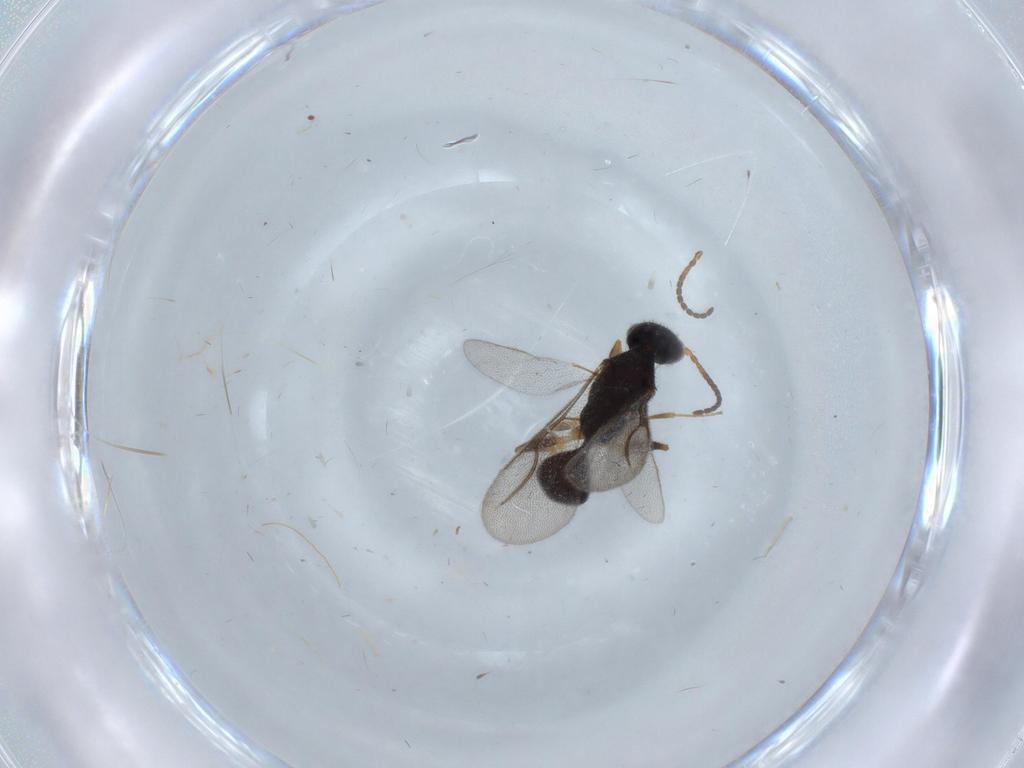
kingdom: Animalia
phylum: Arthropoda
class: Insecta
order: Hymenoptera
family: Bethylidae
